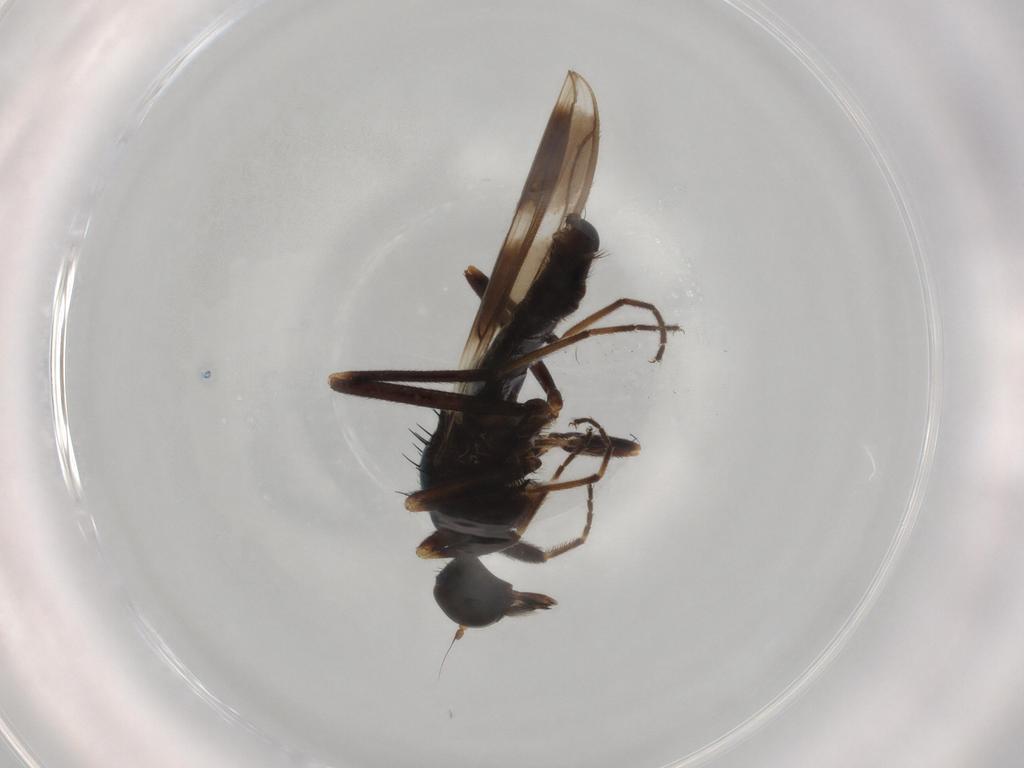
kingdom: Animalia
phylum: Arthropoda
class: Insecta
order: Diptera
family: Hybotidae
